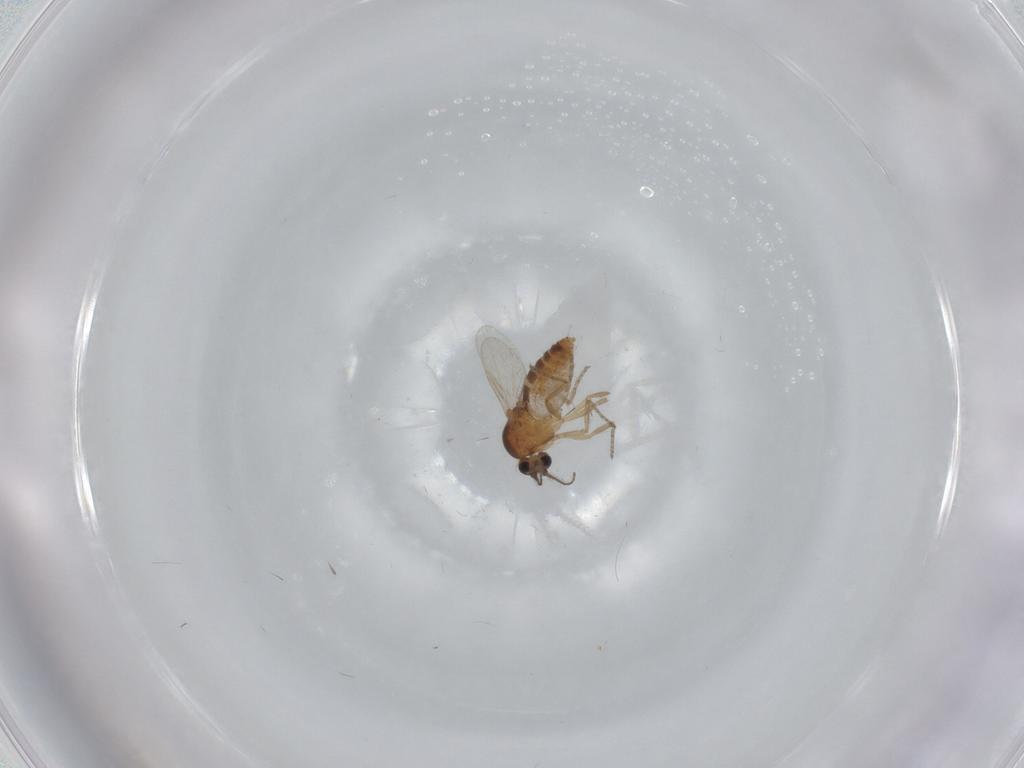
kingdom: Animalia
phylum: Arthropoda
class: Insecta
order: Diptera
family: Ceratopogonidae
